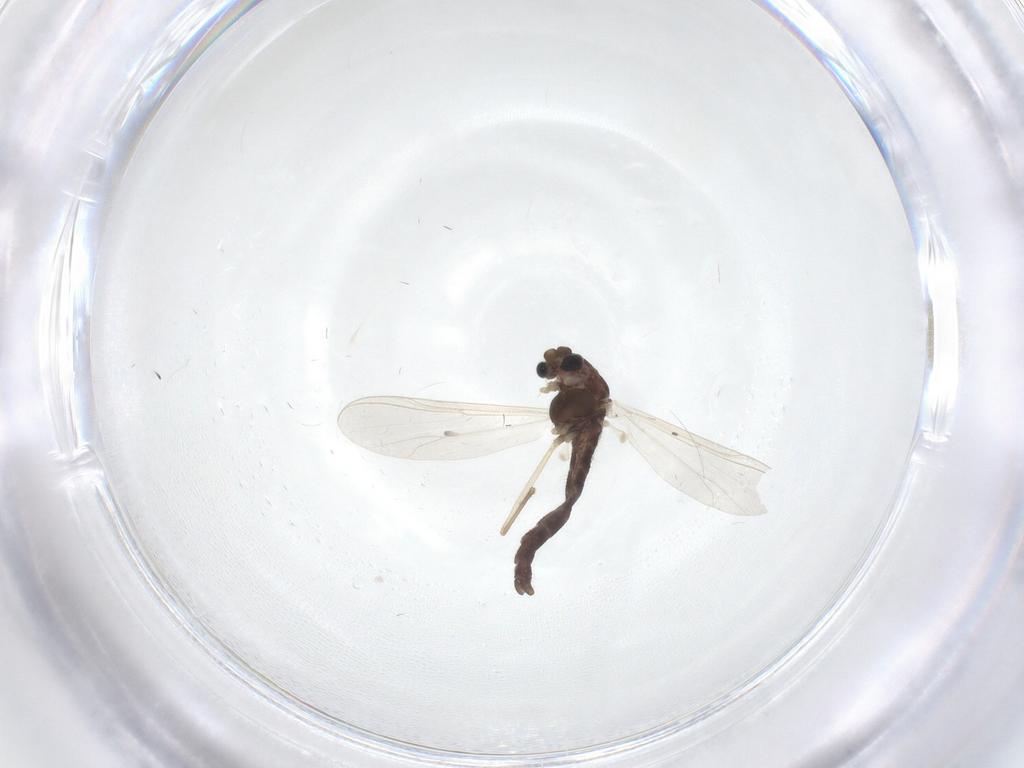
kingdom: Animalia
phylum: Arthropoda
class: Insecta
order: Diptera
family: Chironomidae
